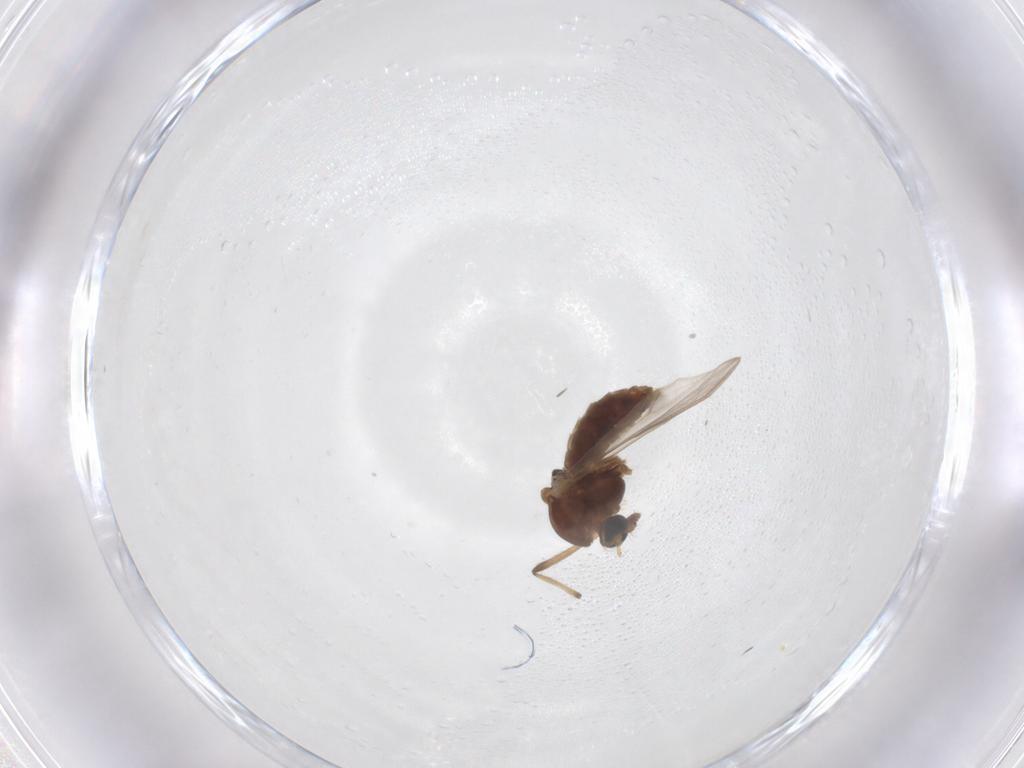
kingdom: Animalia
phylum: Arthropoda
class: Insecta
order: Diptera
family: Chironomidae
